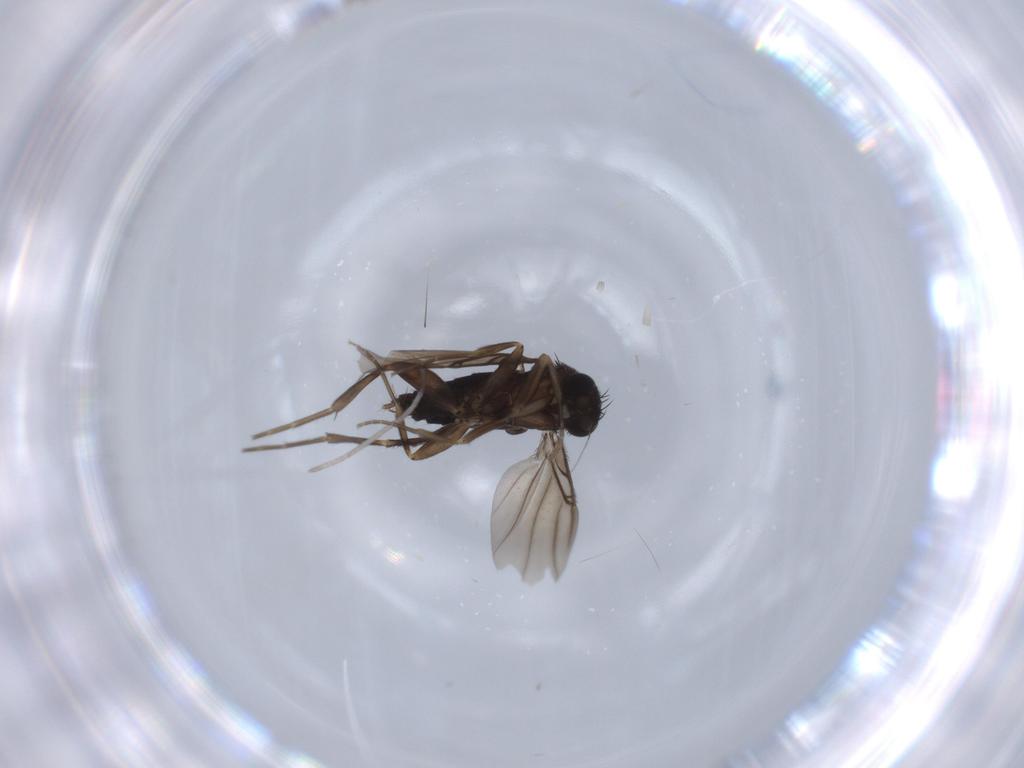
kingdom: Animalia
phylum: Arthropoda
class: Insecta
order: Diptera
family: Phoridae
